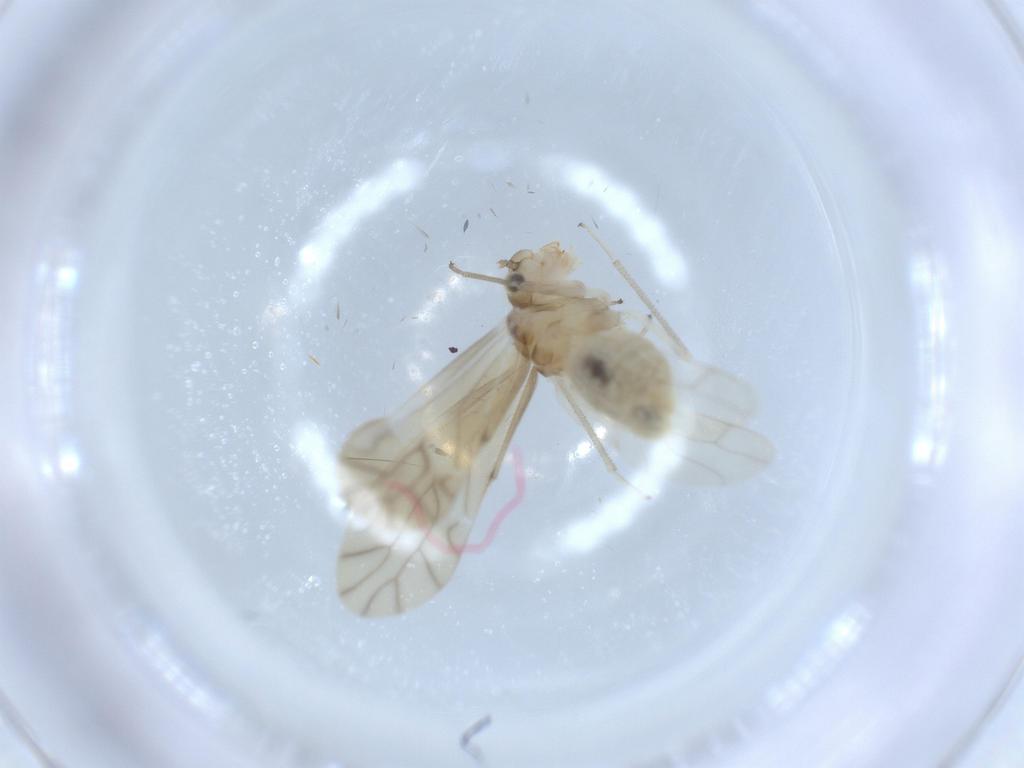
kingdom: Animalia
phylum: Arthropoda
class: Insecta
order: Psocodea
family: Caeciliusidae
